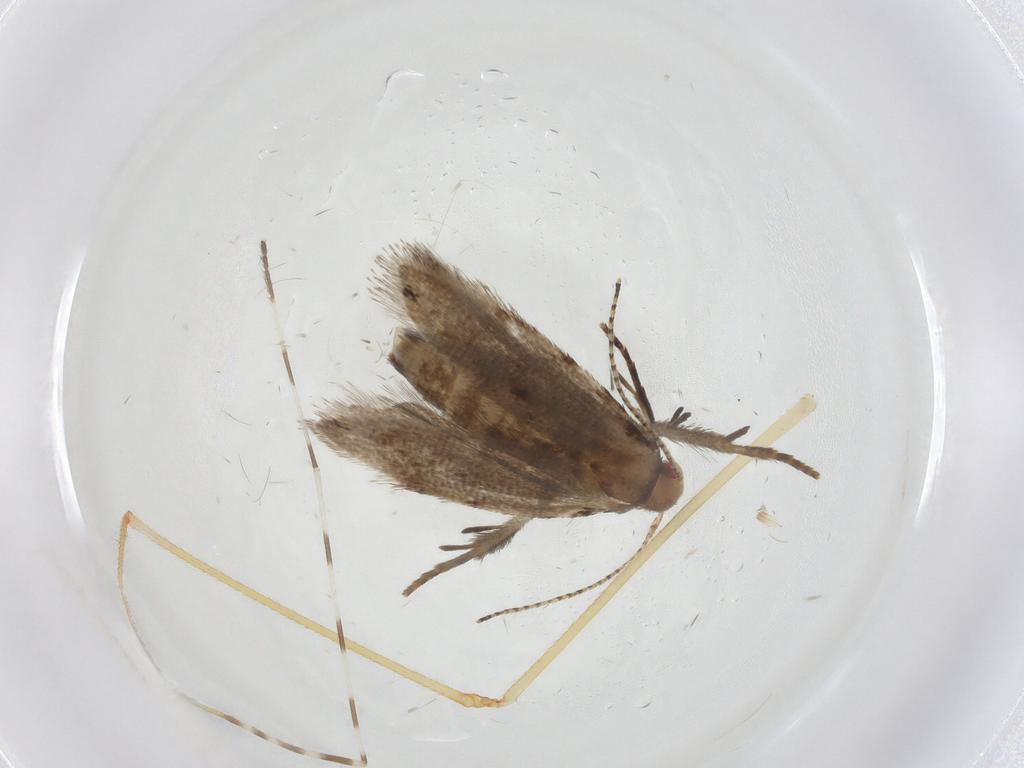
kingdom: Animalia
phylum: Arthropoda
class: Insecta
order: Lepidoptera
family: Gelechiidae
